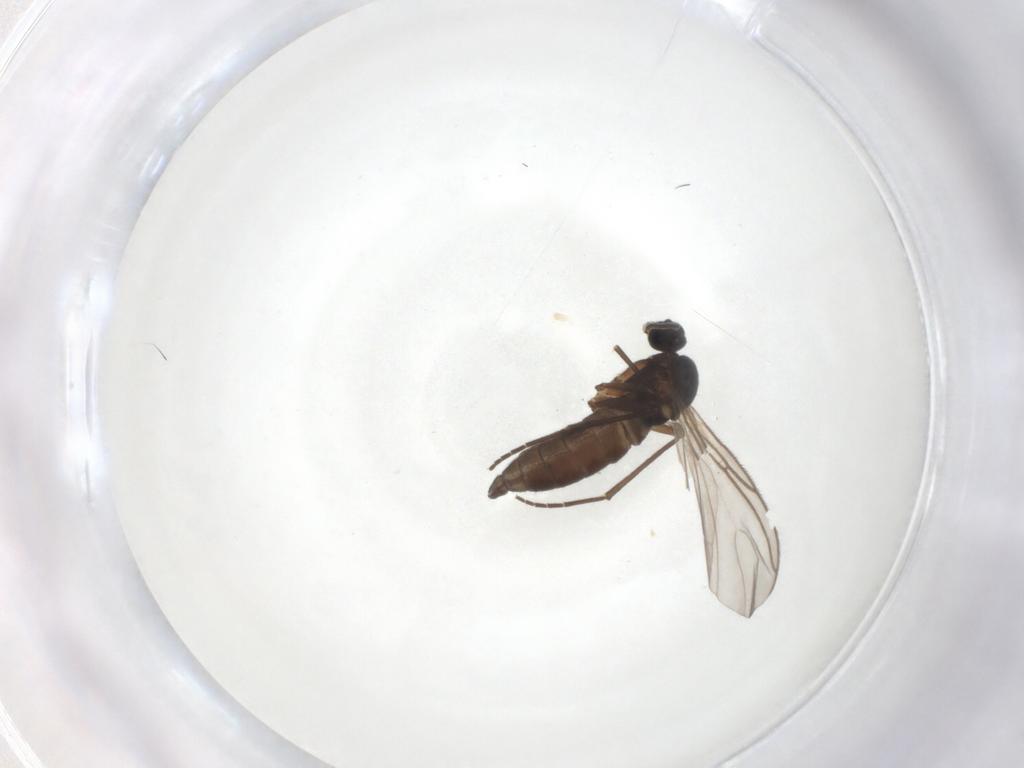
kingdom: Animalia
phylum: Arthropoda
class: Insecta
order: Diptera
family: Sciaridae
